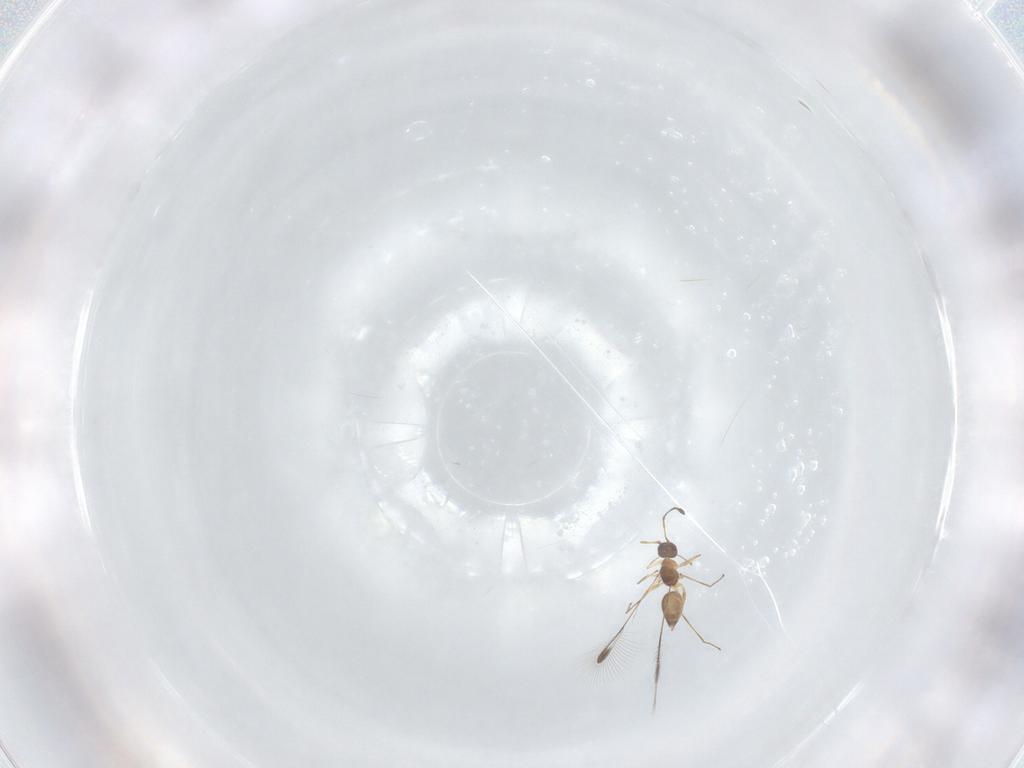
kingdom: Animalia
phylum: Arthropoda
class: Insecta
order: Hymenoptera
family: Mymaridae
